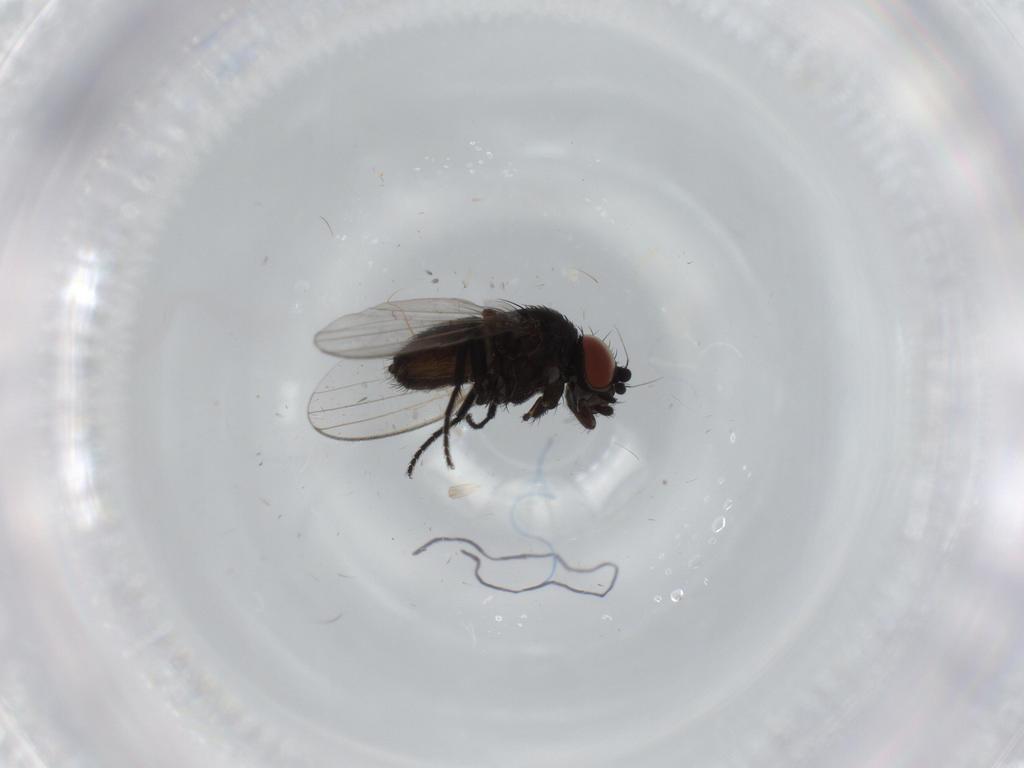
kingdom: Animalia
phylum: Arthropoda
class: Insecta
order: Diptera
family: Milichiidae
